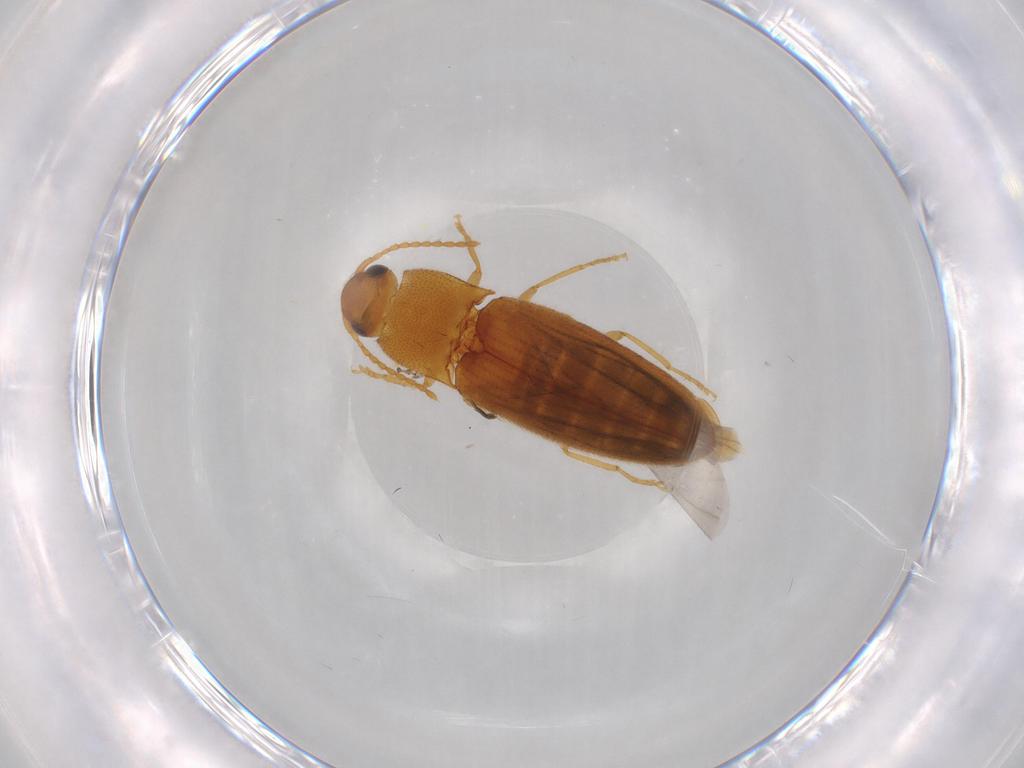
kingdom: Animalia
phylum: Arthropoda
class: Insecta
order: Coleoptera
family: Elateridae
